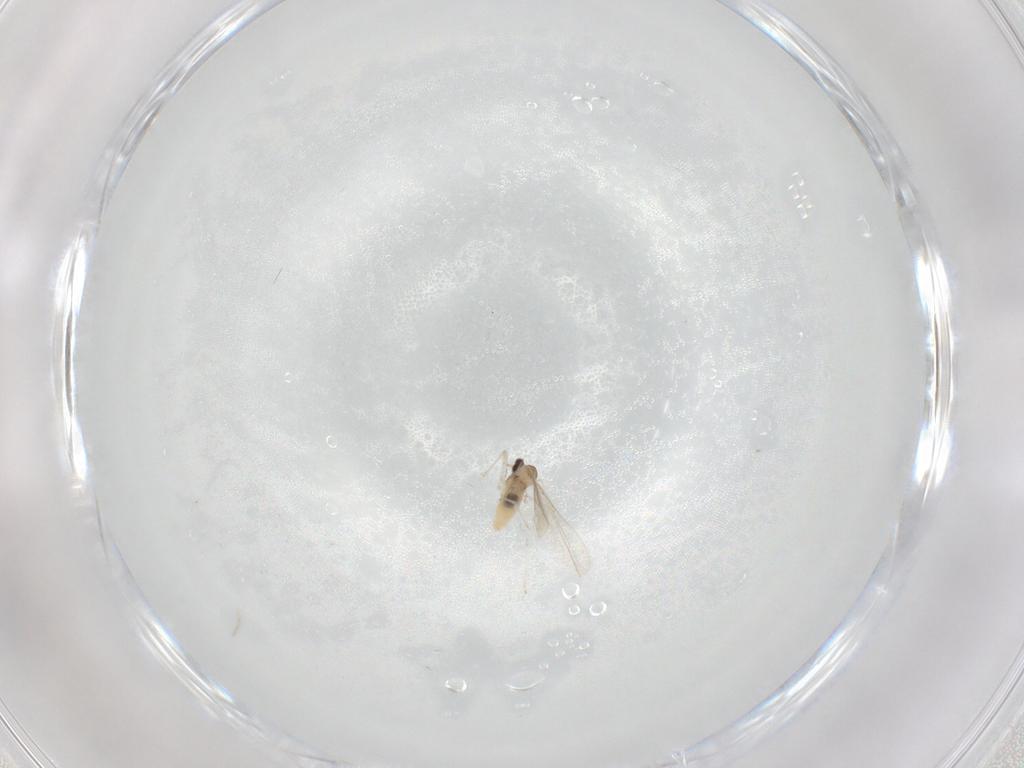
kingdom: Animalia
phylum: Arthropoda
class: Insecta
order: Diptera
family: Cecidomyiidae
